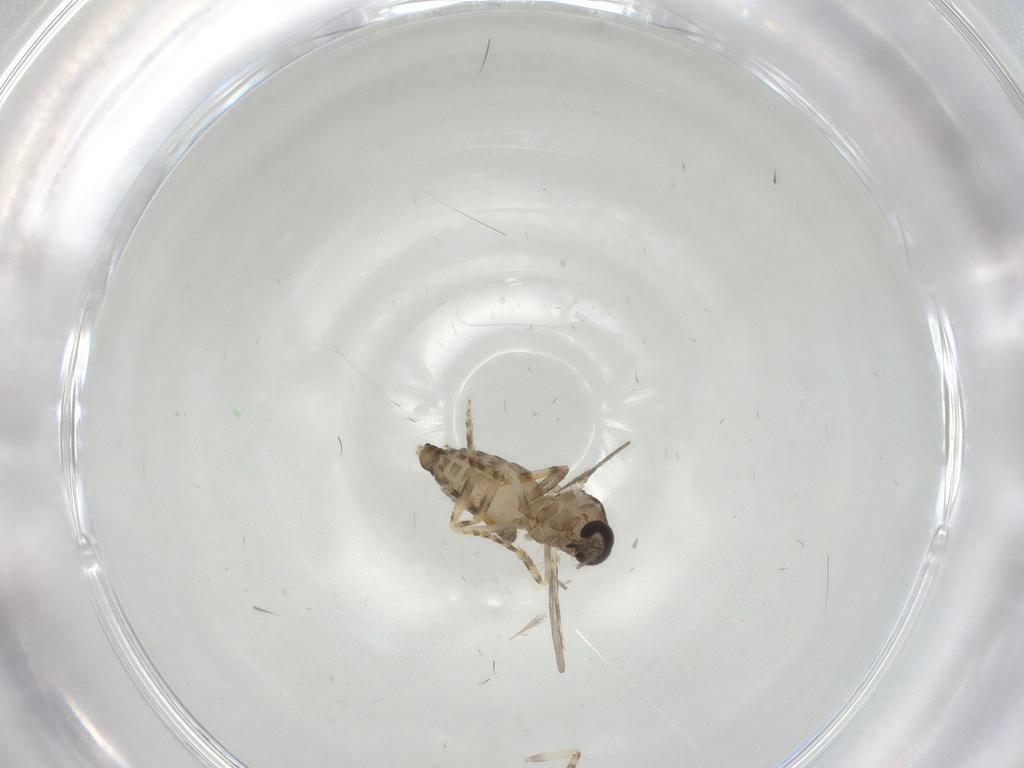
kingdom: Animalia
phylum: Arthropoda
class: Insecta
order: Diptera
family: Ceratopogonidae
